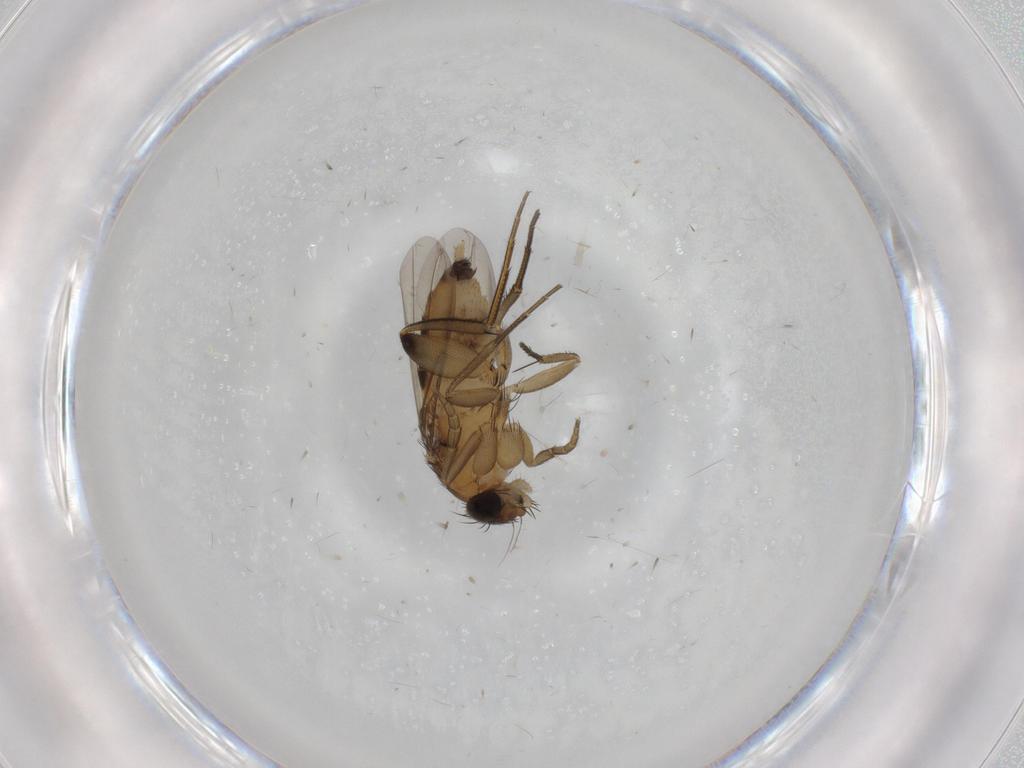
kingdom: Animalia
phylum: Arthropoda
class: Insecta
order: Diptera
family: Phoridae
